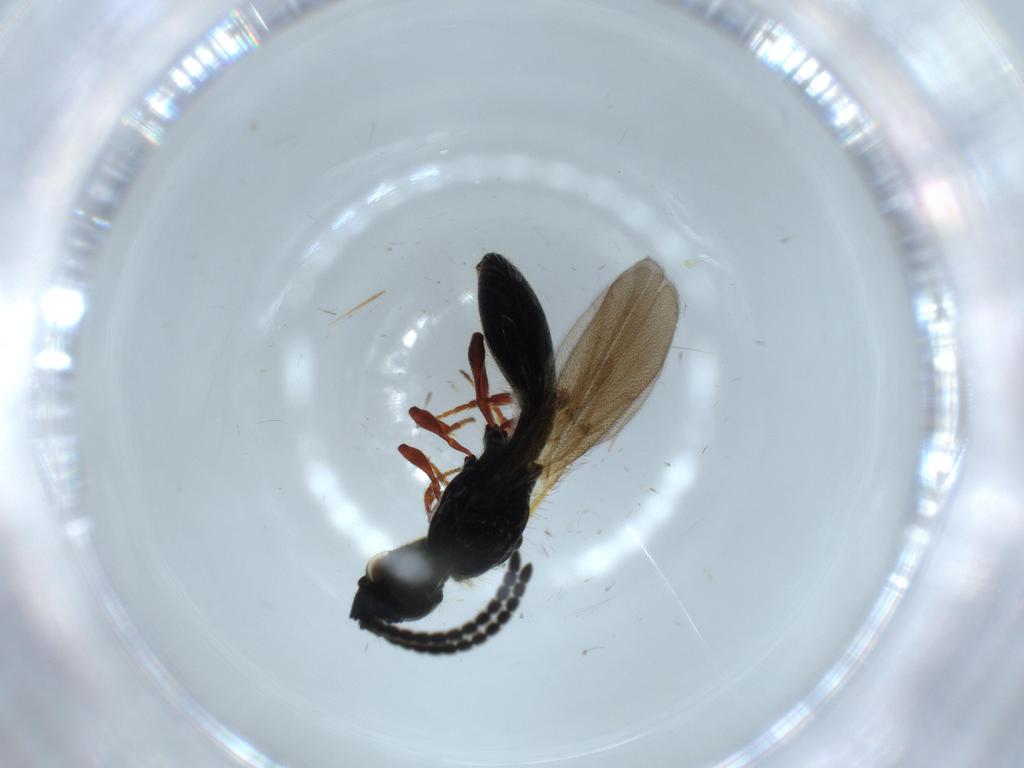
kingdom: Animalia
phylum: Arthropoda
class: Insecta
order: Hymenoptera
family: Diapriidae
